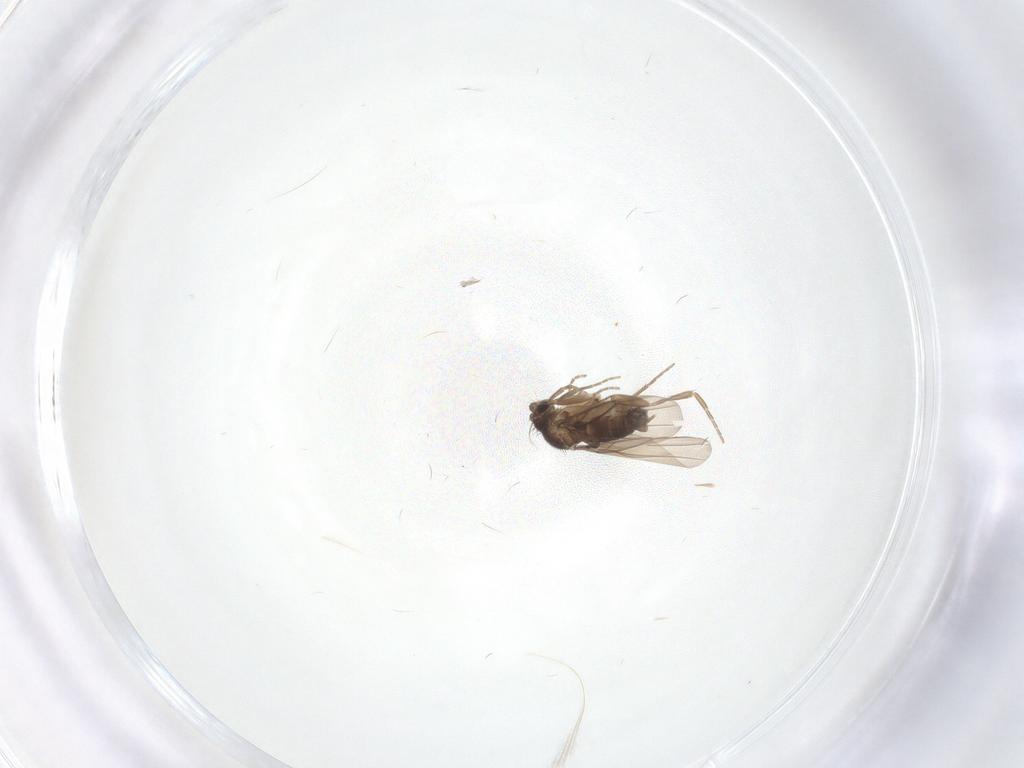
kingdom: Animalia
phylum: Arthropoda
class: Insecta
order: Diptera
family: Phoridae
